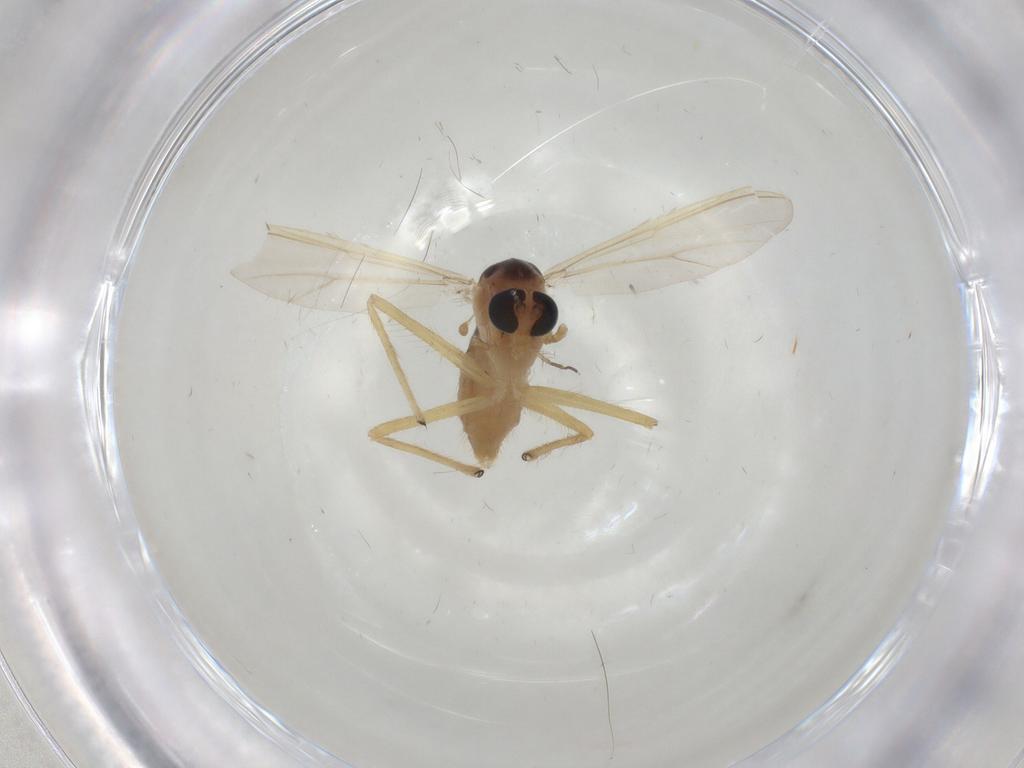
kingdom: Animalia
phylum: Arthropoda
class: Insecta
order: Diptera
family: Chironomidae
